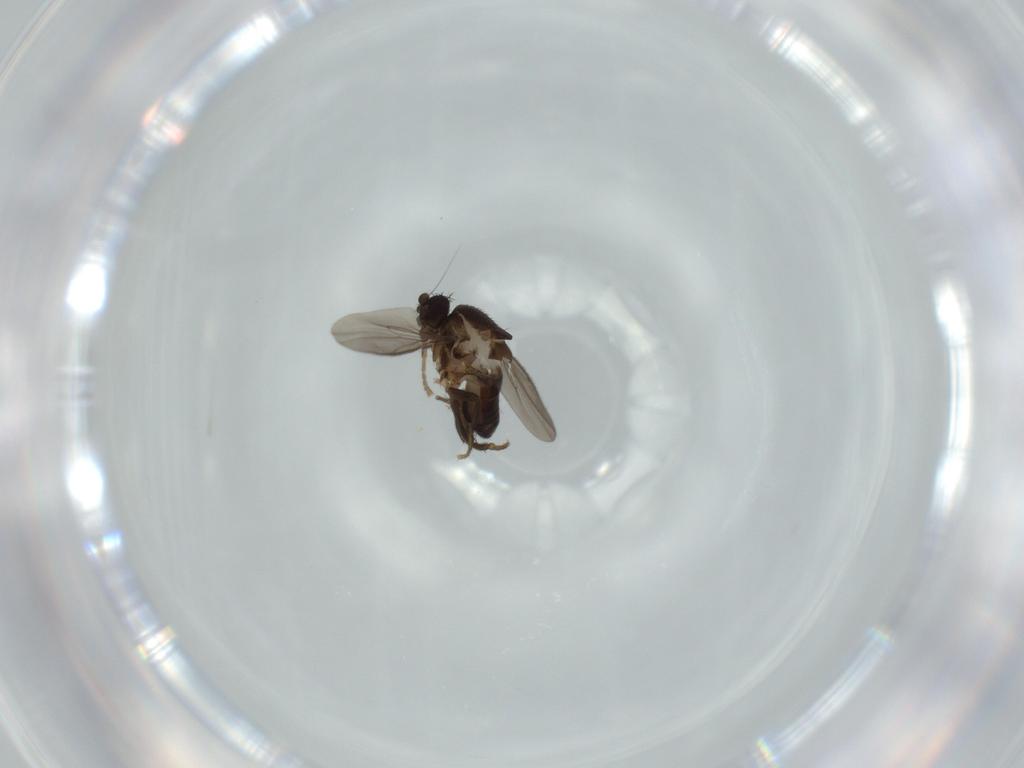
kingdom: Animalia
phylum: Arthropoda
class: Insecta
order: Diptera
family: Sphaeroceridae
